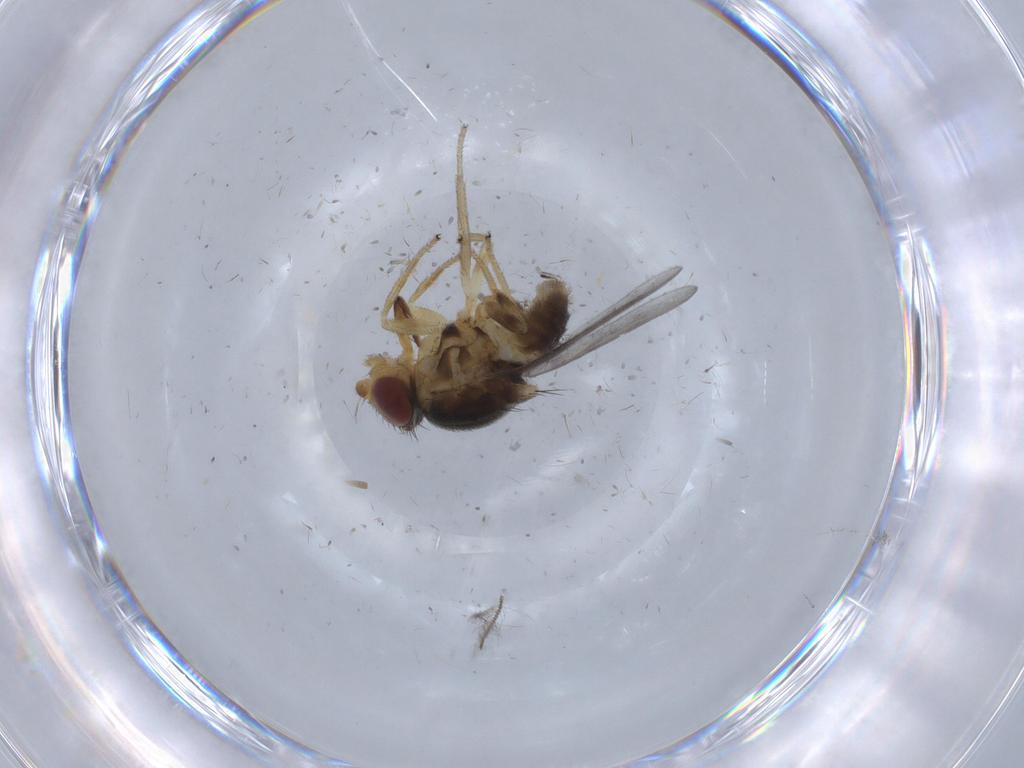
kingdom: Animalia
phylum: Arthropoda
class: Insecta
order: Diptera
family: Chloropidae
